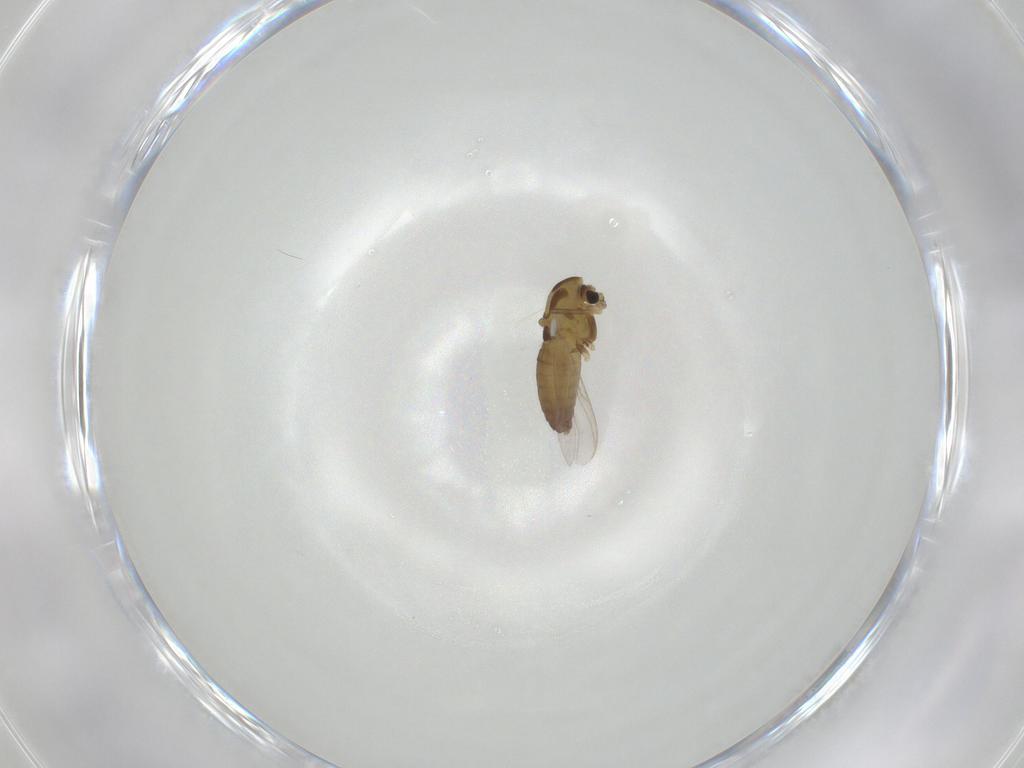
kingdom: Animalia
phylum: Arthropoda
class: Insecta
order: Diptera
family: Chironomidae
